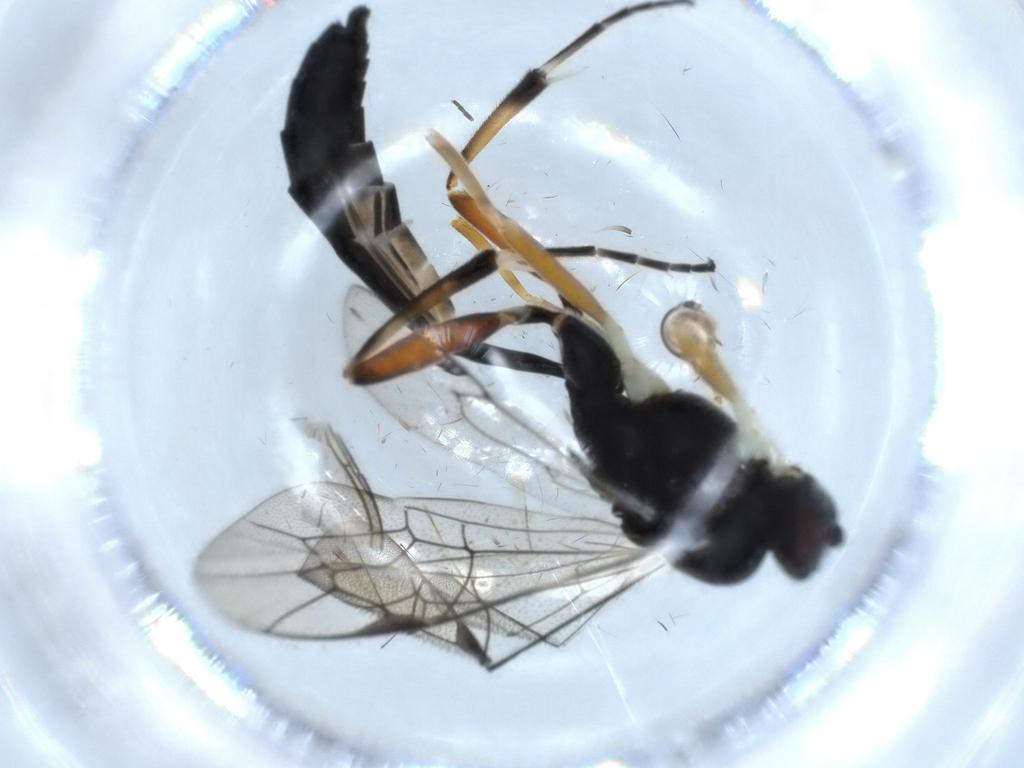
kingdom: Animalia
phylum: Arthropoda
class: Insecta
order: Hymenoptera
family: Ichneumonidae
